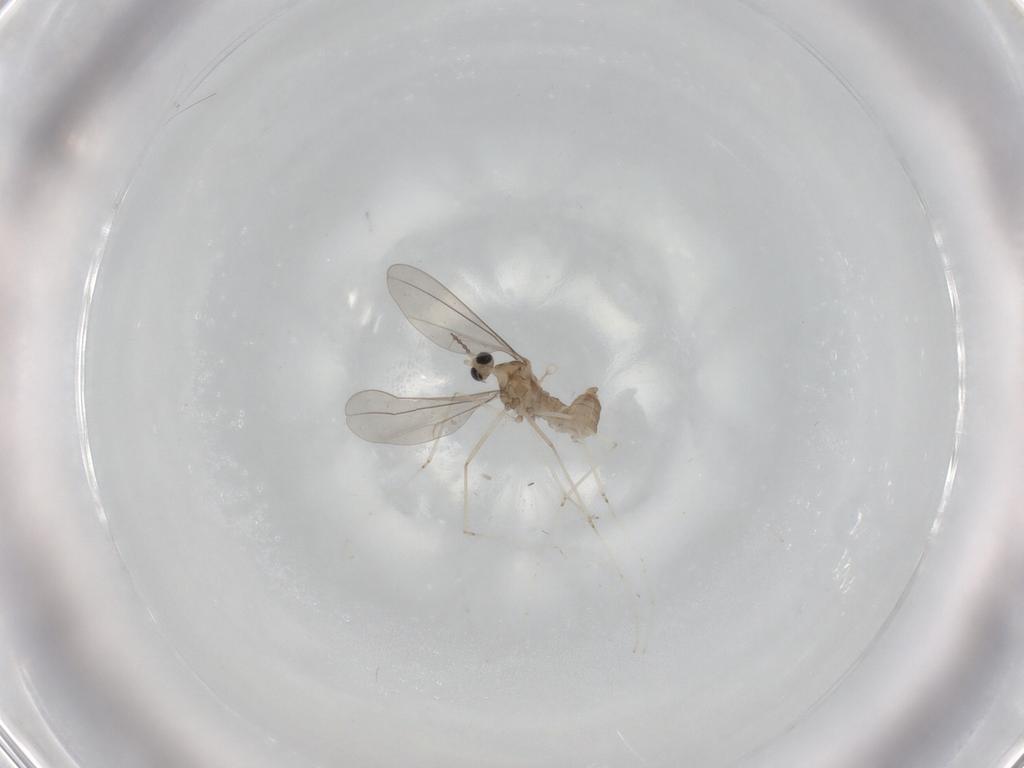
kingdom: Animalia
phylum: Arthropoda
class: Insecta
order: Diptera
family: Cecidomyiidae
